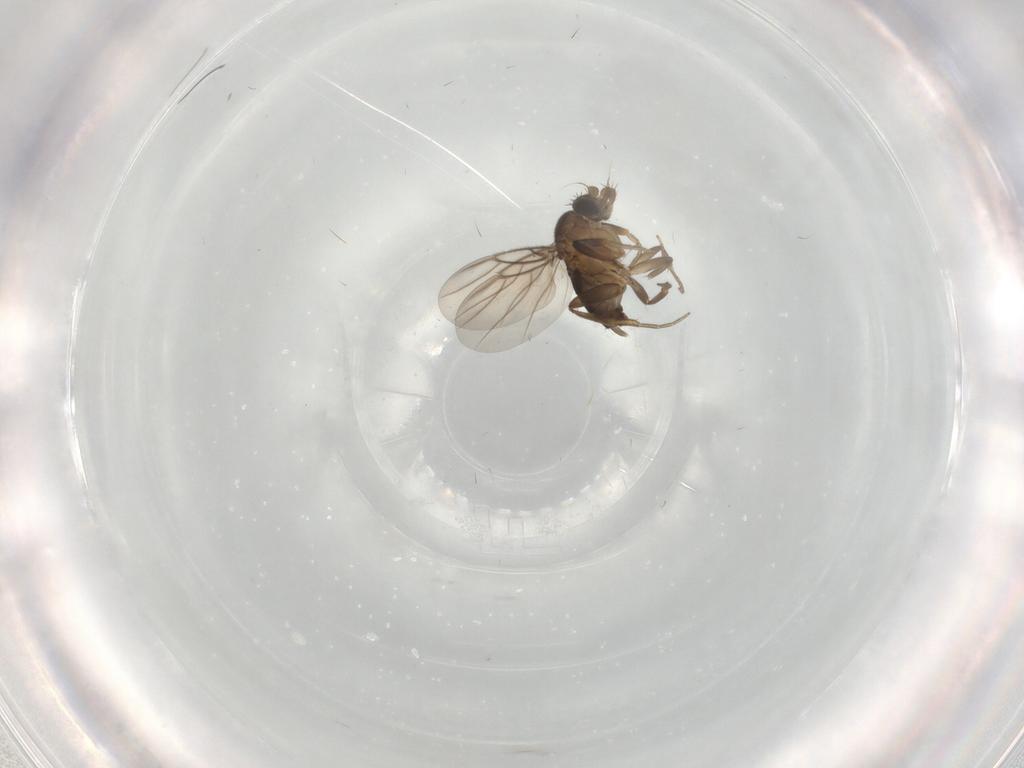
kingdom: Animalia
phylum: Arthropoda
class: Insecta
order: Diptera
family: Phoridae
